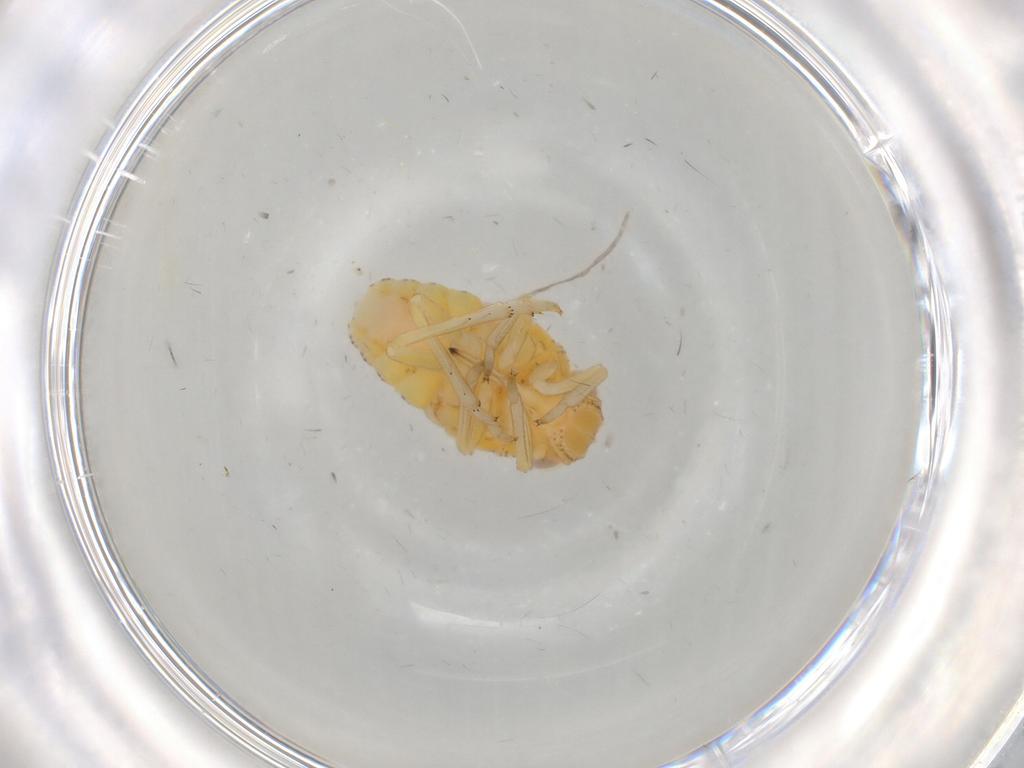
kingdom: Animalia
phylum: Arthropoda
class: Insecta
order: Hemiptera
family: Tropiduchidae
